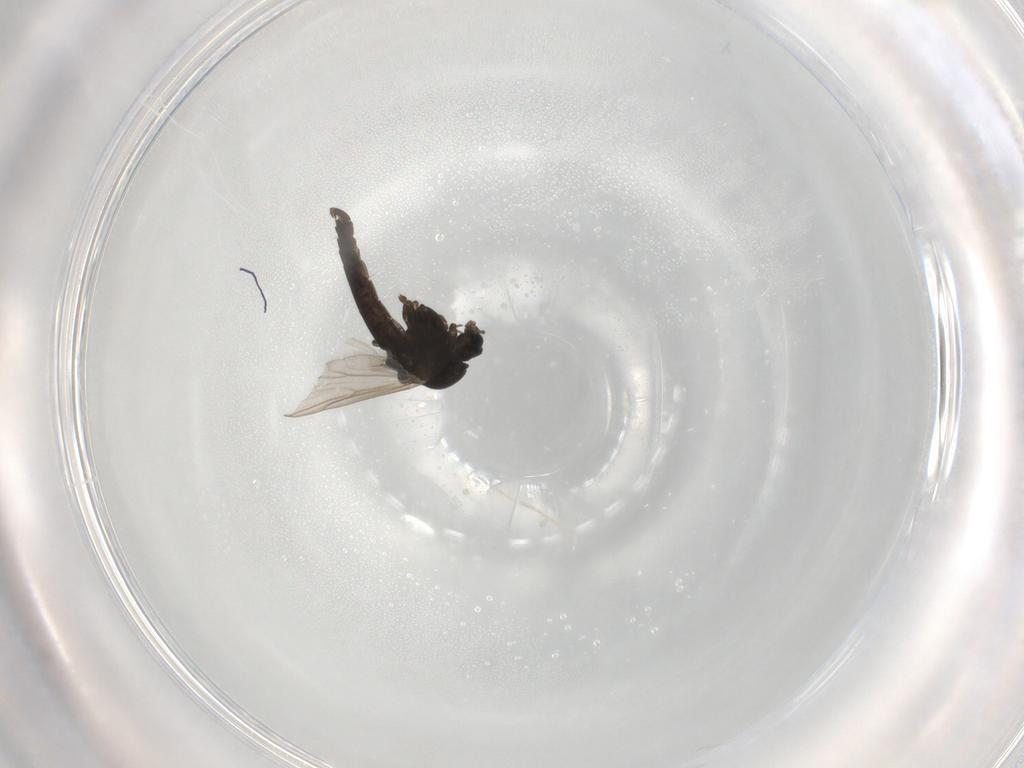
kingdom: Animalia
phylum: Arthropoda
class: Insecta
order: Diptera
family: Chironomidae
